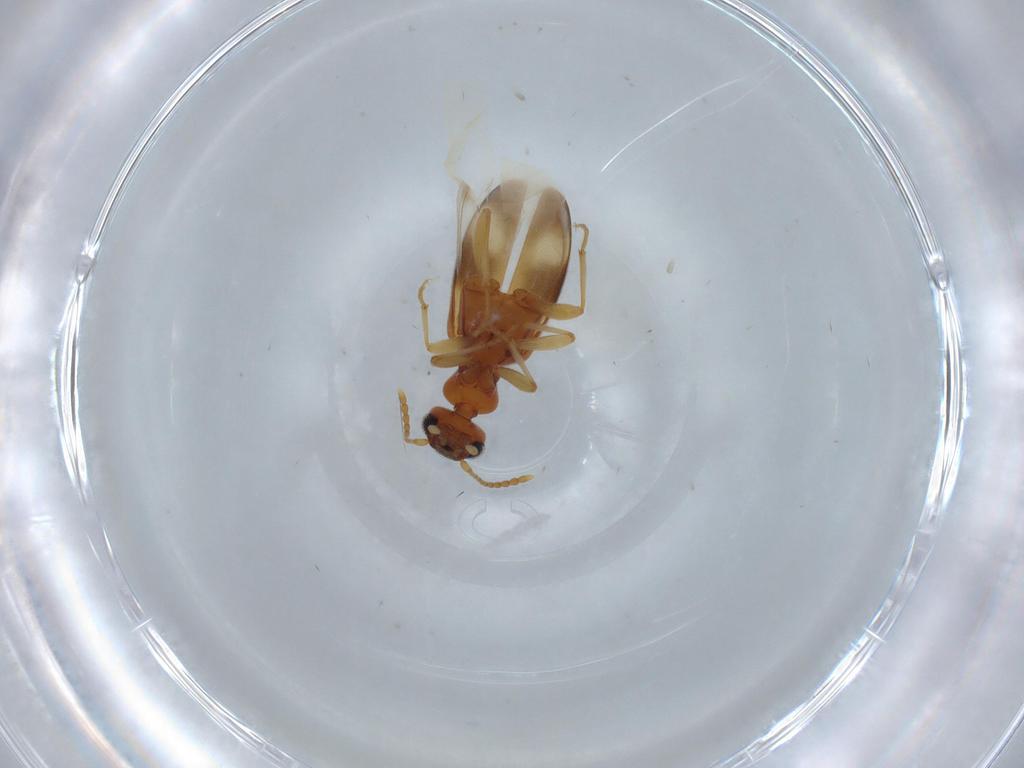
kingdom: Animalia
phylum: Arthropoda
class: Insecta
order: Coleoptera
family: Anthicidae
